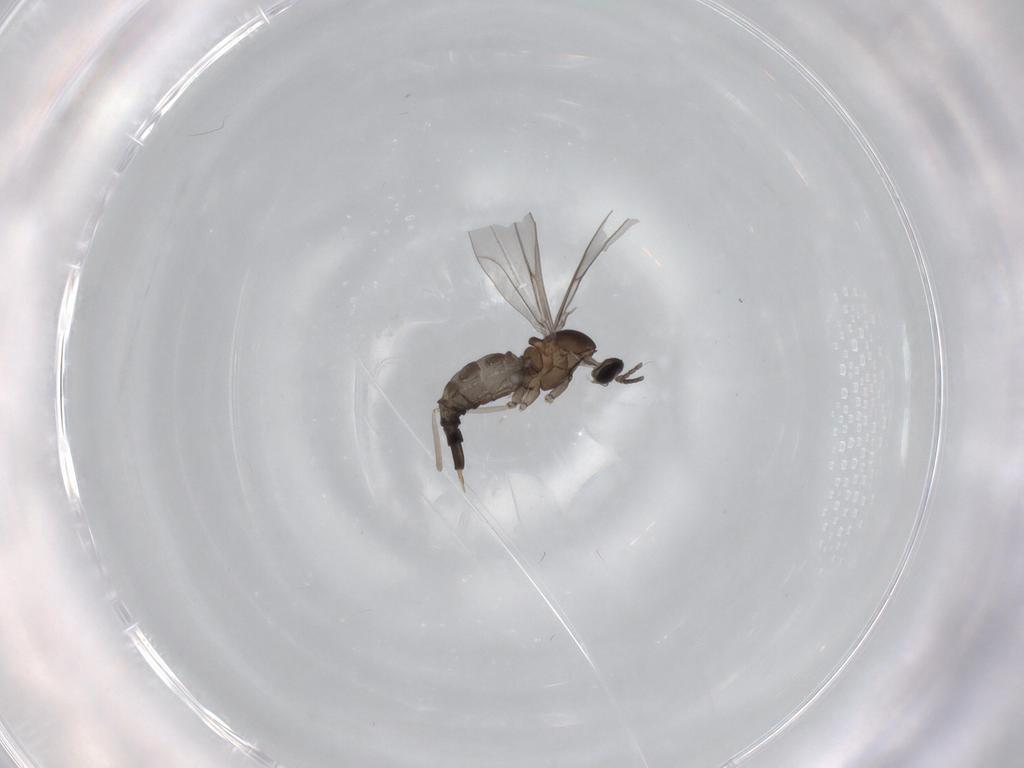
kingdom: Animalia
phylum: Arthropoda
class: Insecta
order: Diptera
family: Cecidomyiidae
